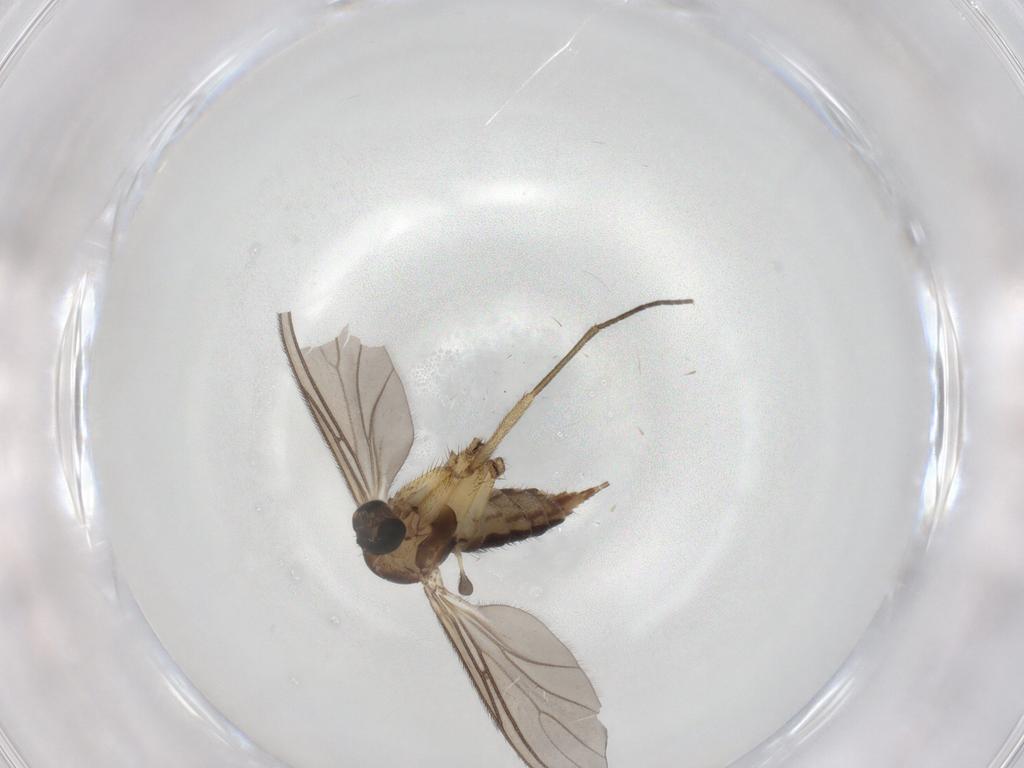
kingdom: Animalia
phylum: Arthropoda
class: Insecta
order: Diptera
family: Sciaridae
